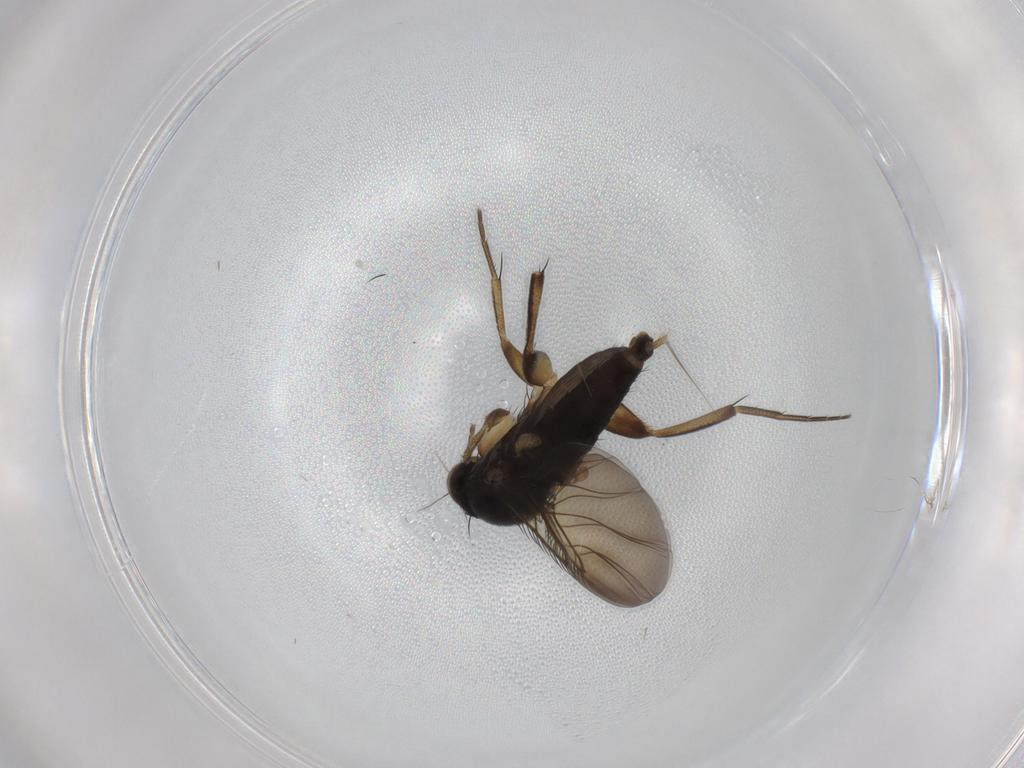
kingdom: Animalia
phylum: Arthropoda
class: Insecta
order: Diptera
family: Phoridae
